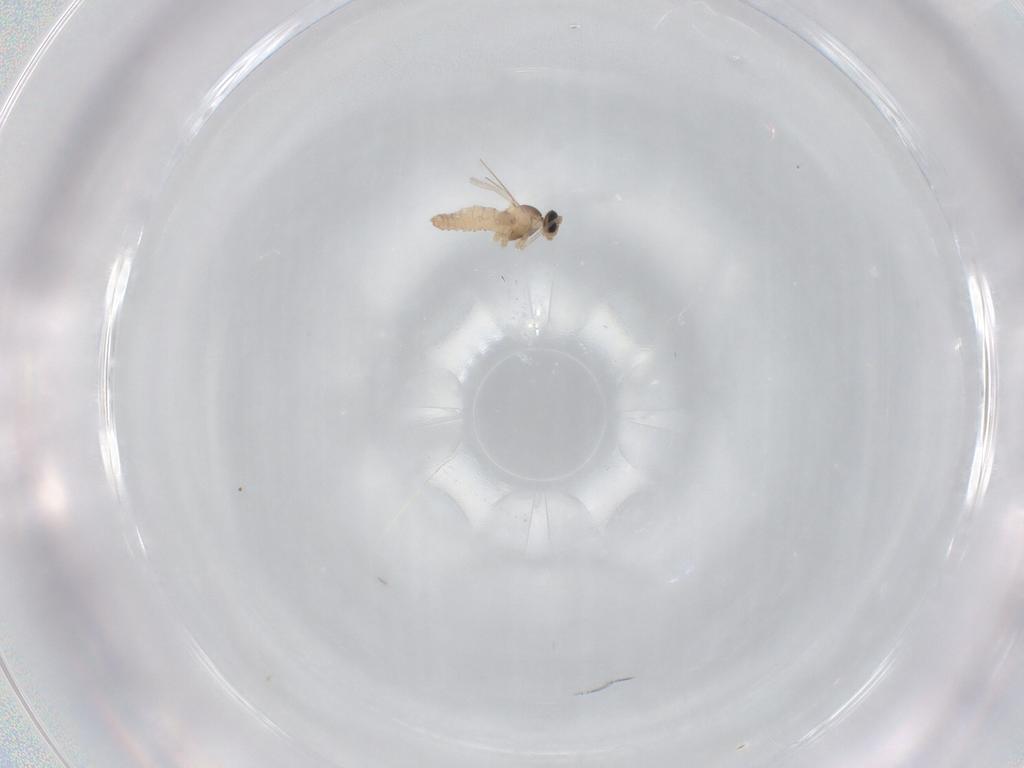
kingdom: Animalia
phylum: Arthropoda
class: Insecta
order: Diptera
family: Cecidomyiidae
